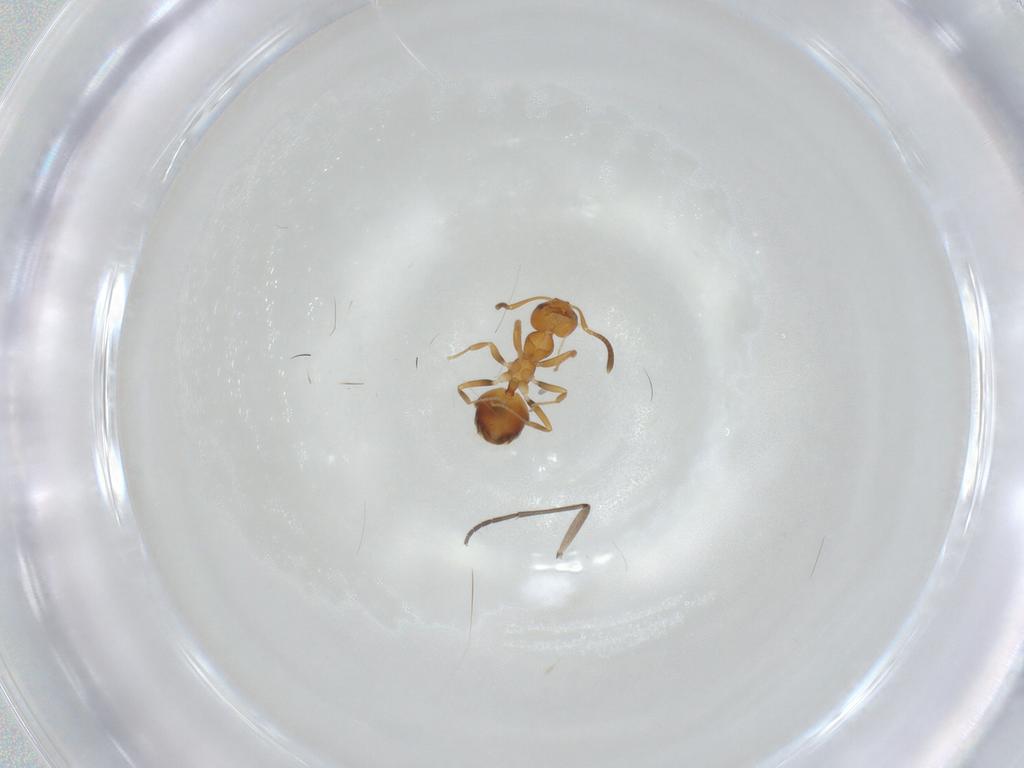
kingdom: Animalia
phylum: Arthropoda
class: Insecta
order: Hymenoptera
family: Formicidae
